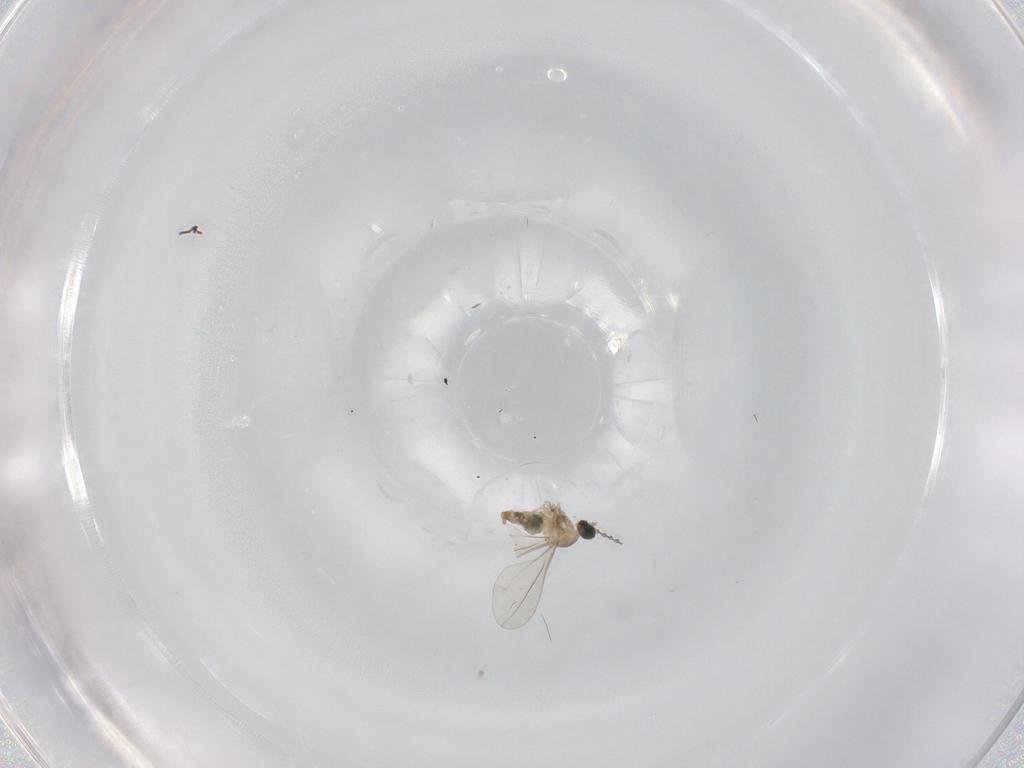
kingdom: Animalia
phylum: Arthropoda
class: Insecta
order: Diptera
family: Cecidomyiidae
